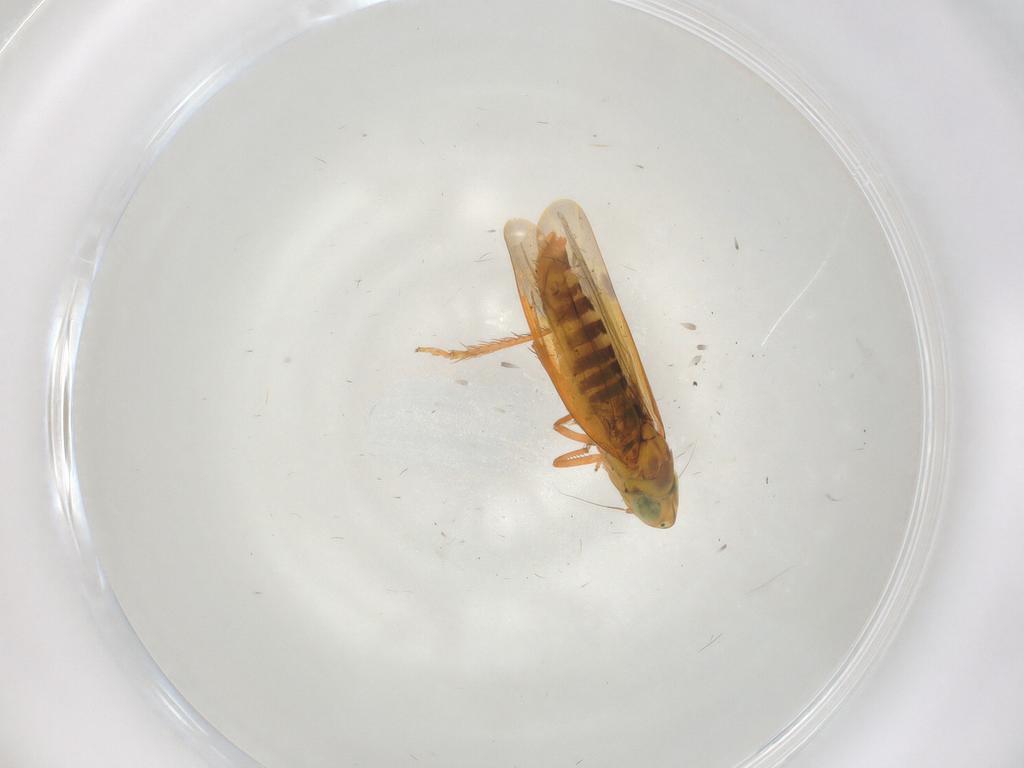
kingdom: Animalia
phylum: Arthropoda
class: Insecta
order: Hemiptera
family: Cicadellidae
